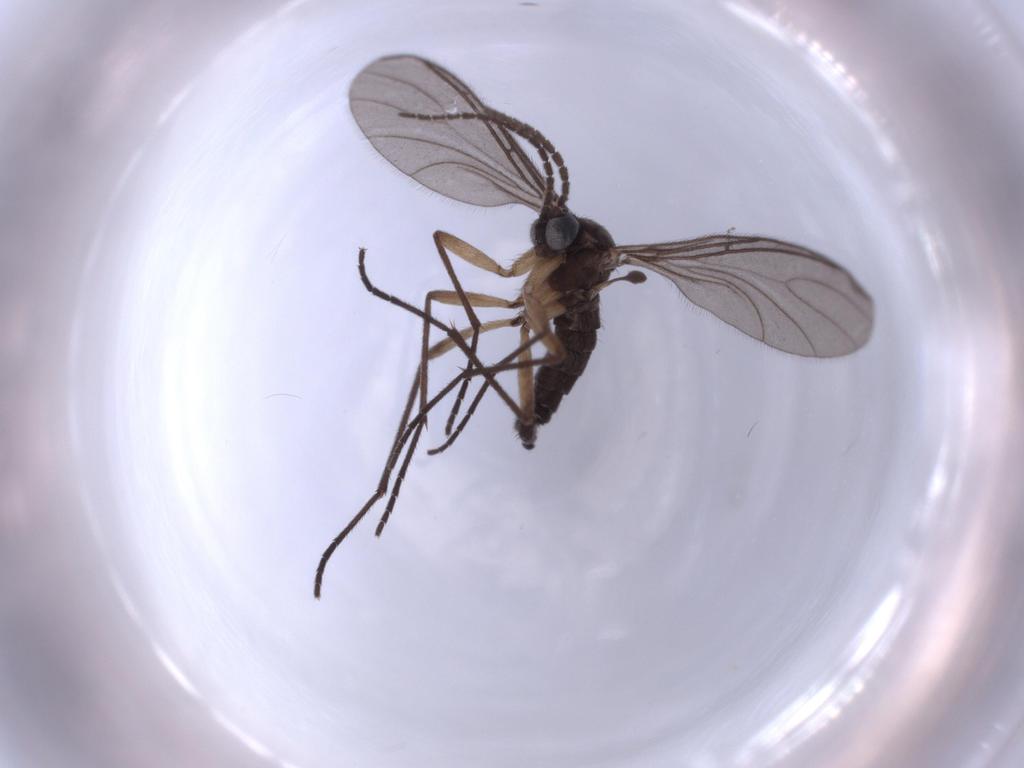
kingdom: Animalia
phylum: Arthropoda
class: Insecta
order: Diptera
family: Sciaridae
